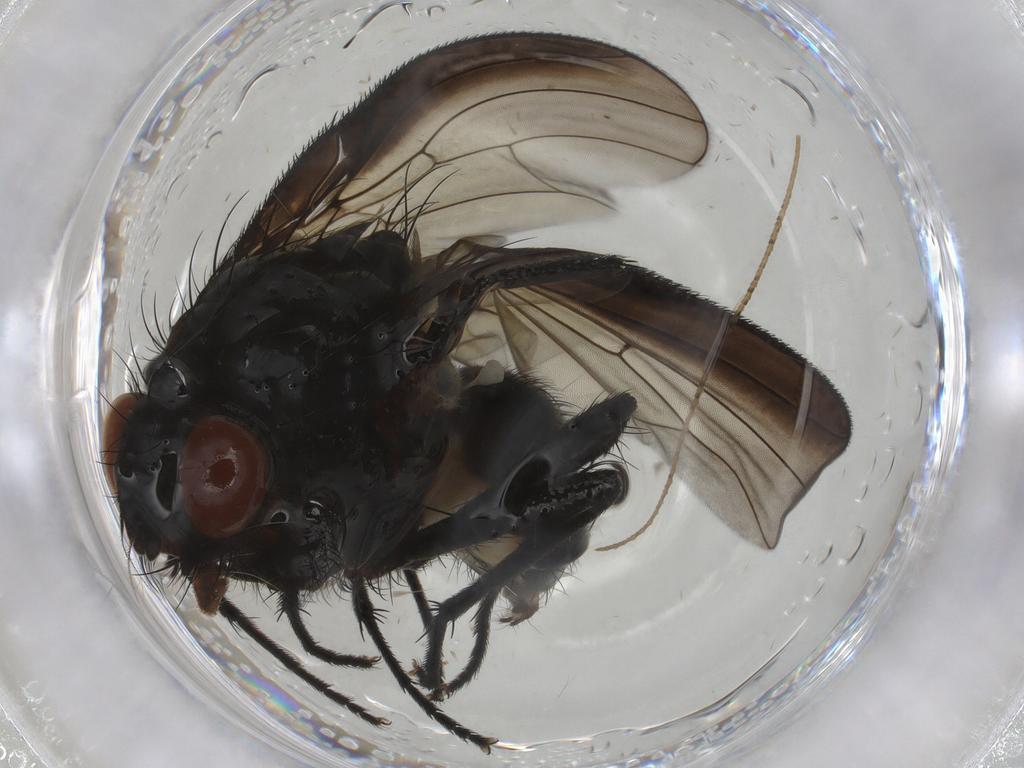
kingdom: Animalia
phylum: Arthropoda
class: Insecta
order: Diptera
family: Anthomyiidae
